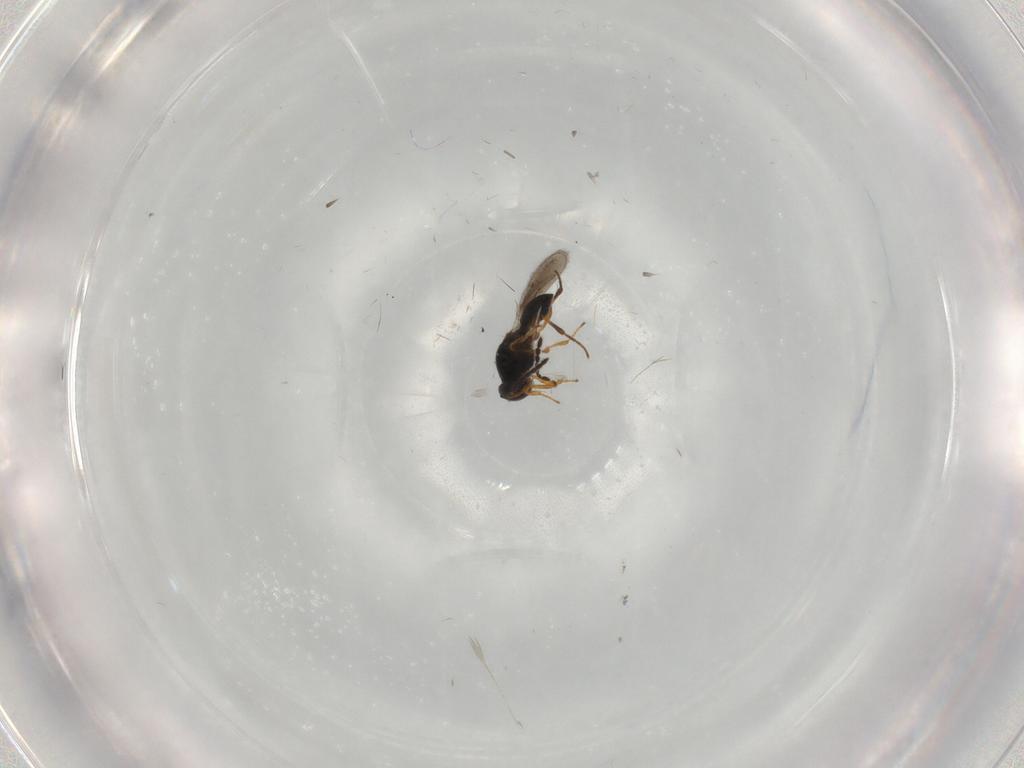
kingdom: Animalia
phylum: Arthropoda
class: Insecta
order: Hymenoptera
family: Platygastridae
